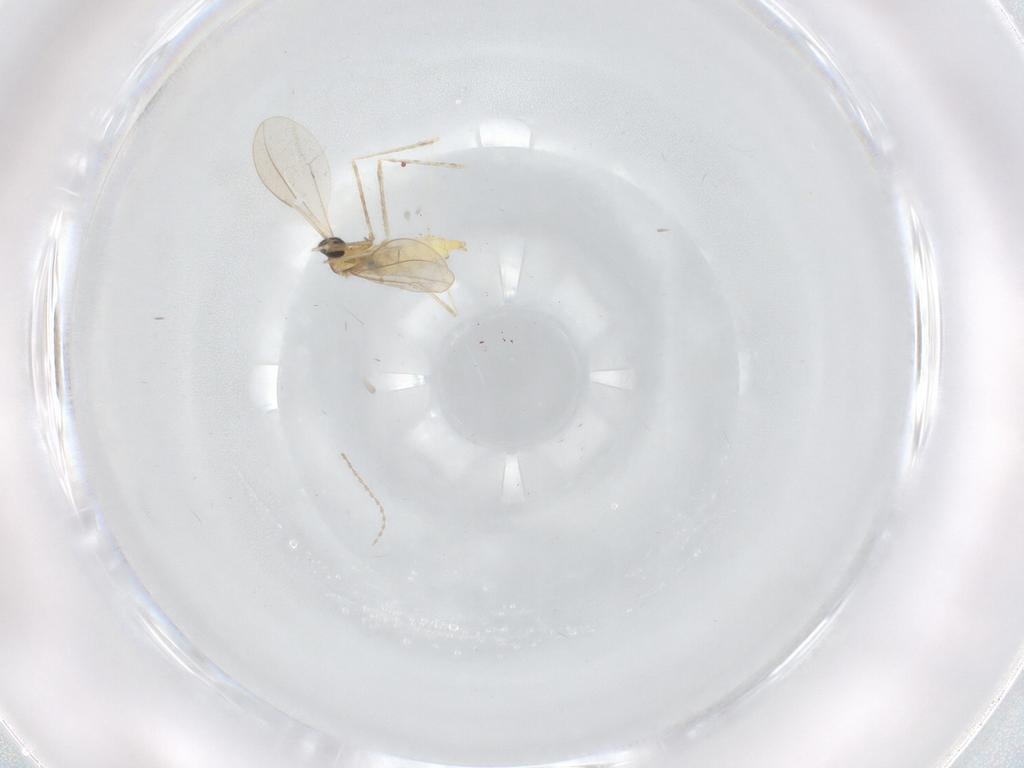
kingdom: Animalia
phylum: Arthropoda
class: Insecta
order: Diptera
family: Cecidomyiidae
